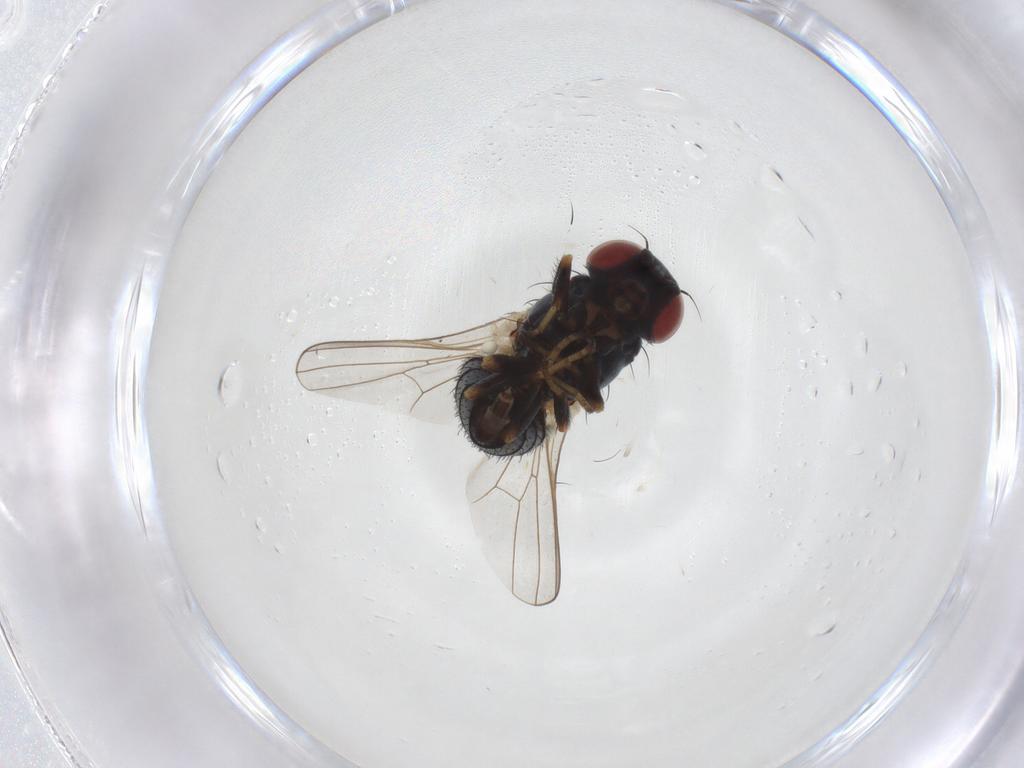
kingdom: Animalia
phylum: Arthropoda
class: Insecta
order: Diptera
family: Chamaemyiidae
